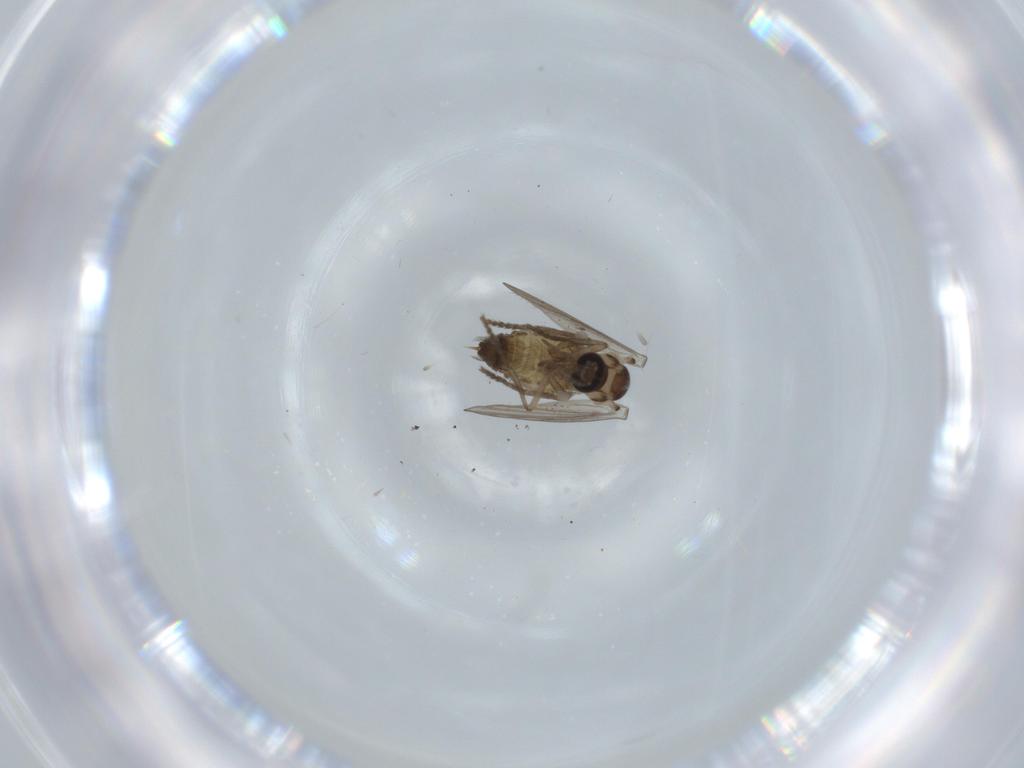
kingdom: Animalia
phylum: Arthropoda
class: Insecta
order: Diptera
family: Psychodidae
